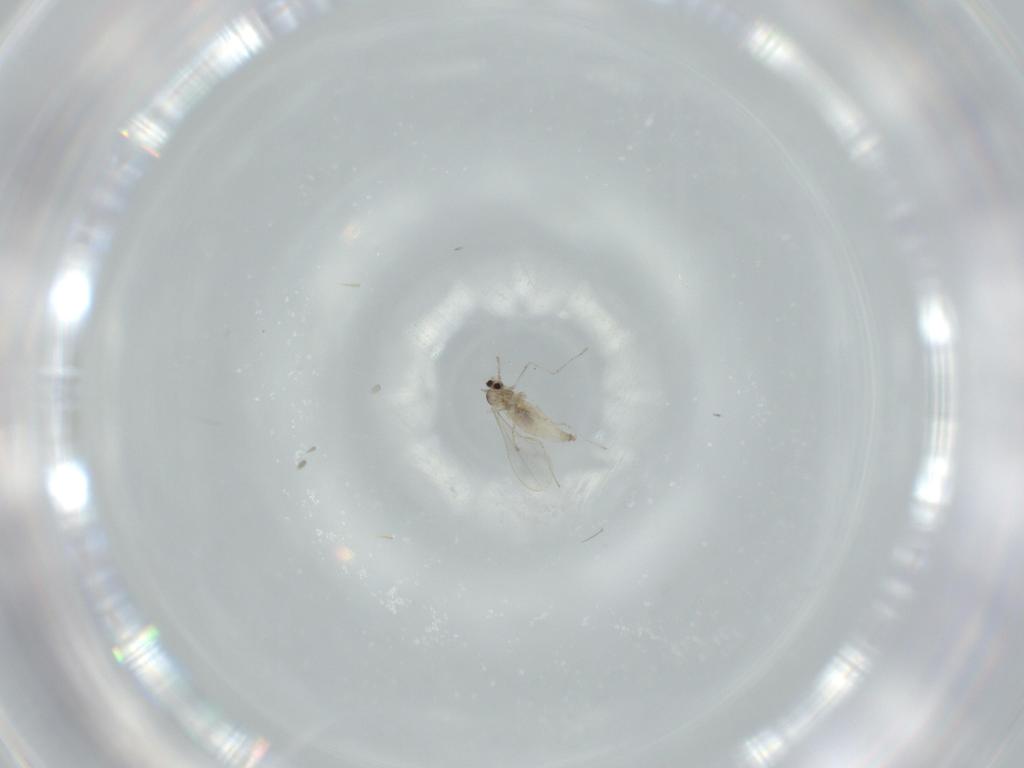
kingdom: Animalia
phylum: Arthropoda
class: Insecta
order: Diptera
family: Cecidomyiidae
